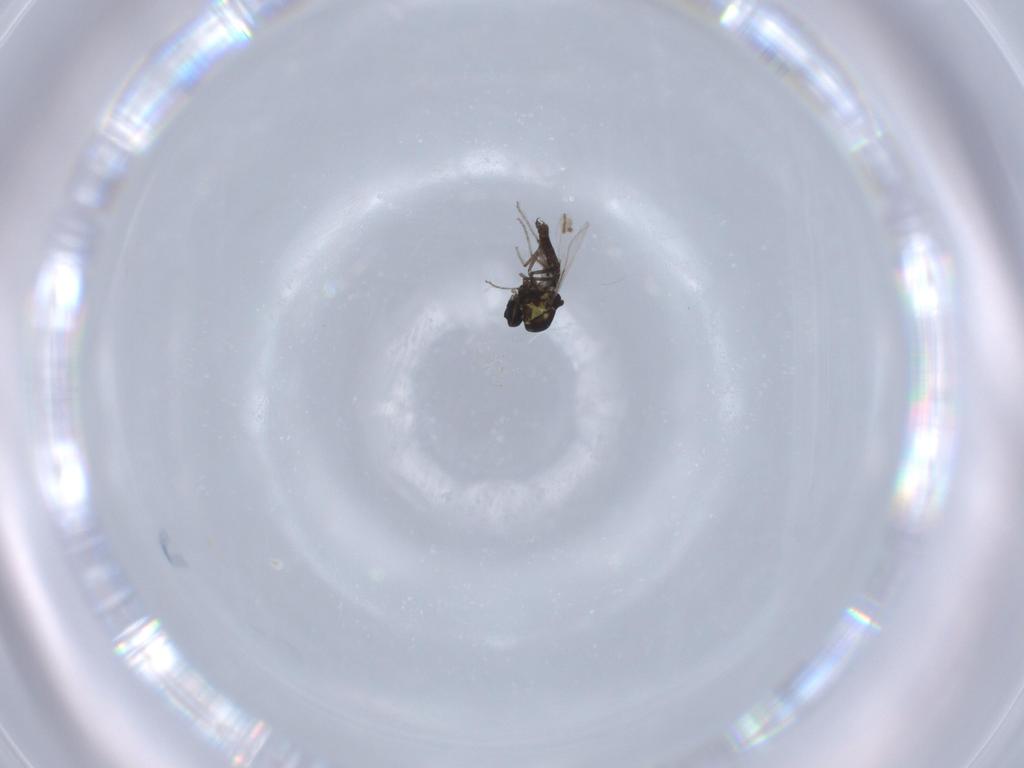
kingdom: Animalia
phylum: Arthropoda
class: Insecta
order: Diptera
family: Ceratopogonidae
